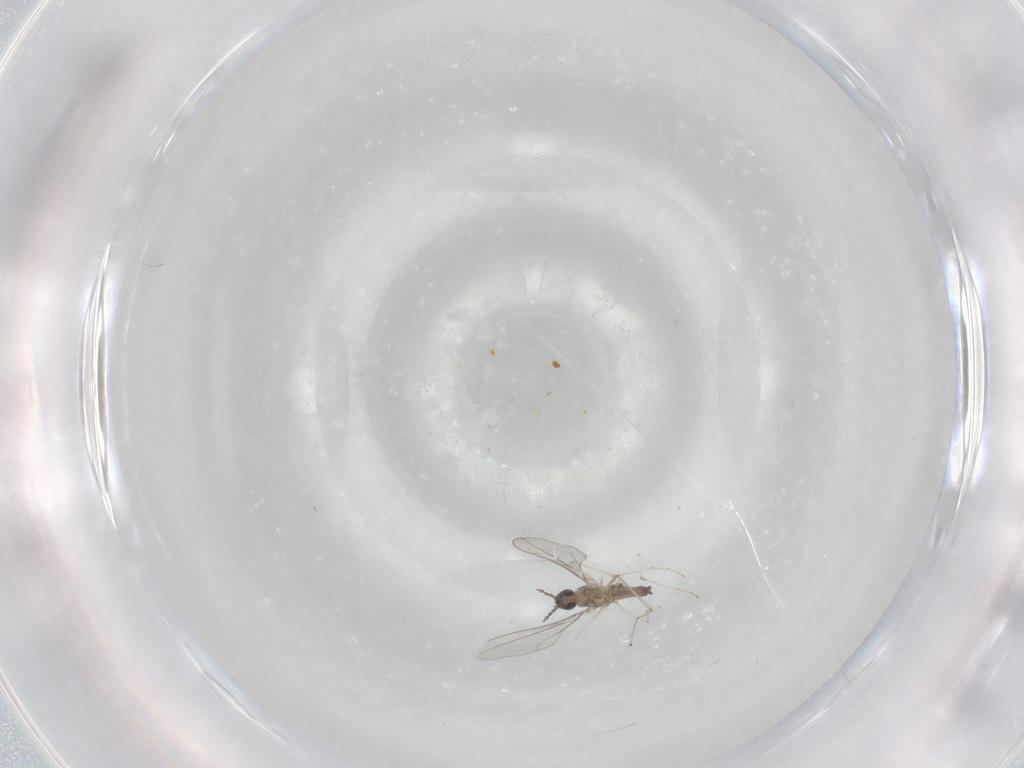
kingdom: Animalia
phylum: Arthropoda
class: Insecta
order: Diptera
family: Cecidomyiidae
